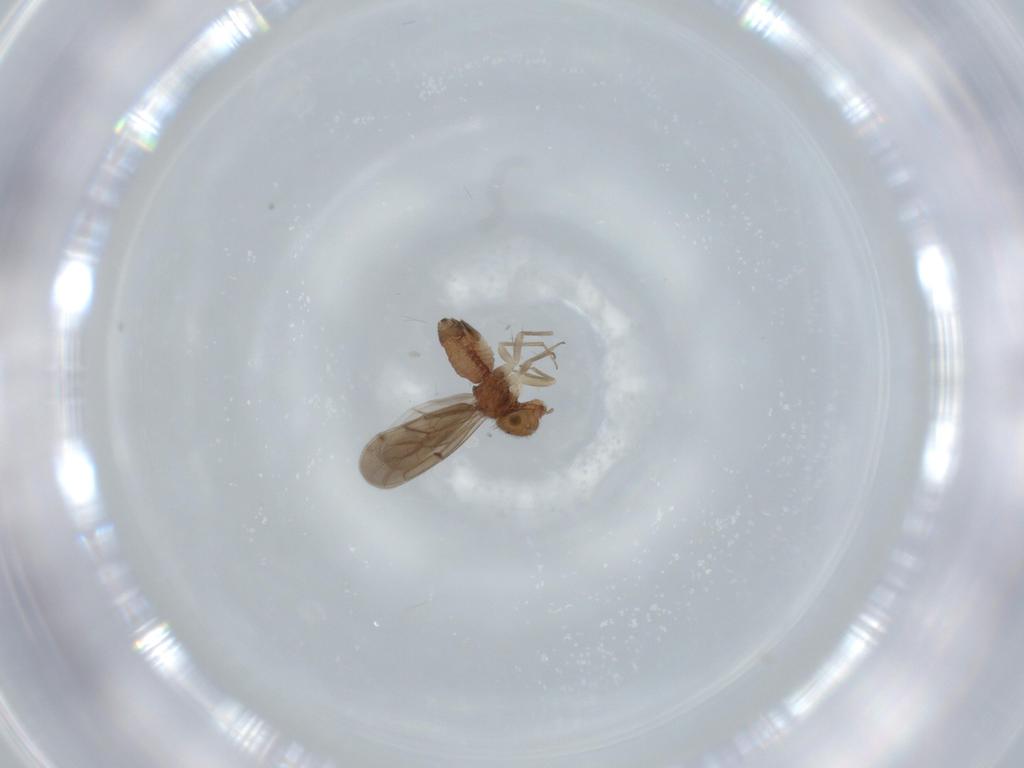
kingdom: Animalia
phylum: Arthropoda
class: Insecta
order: Psocodea
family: Ectopsocidae
